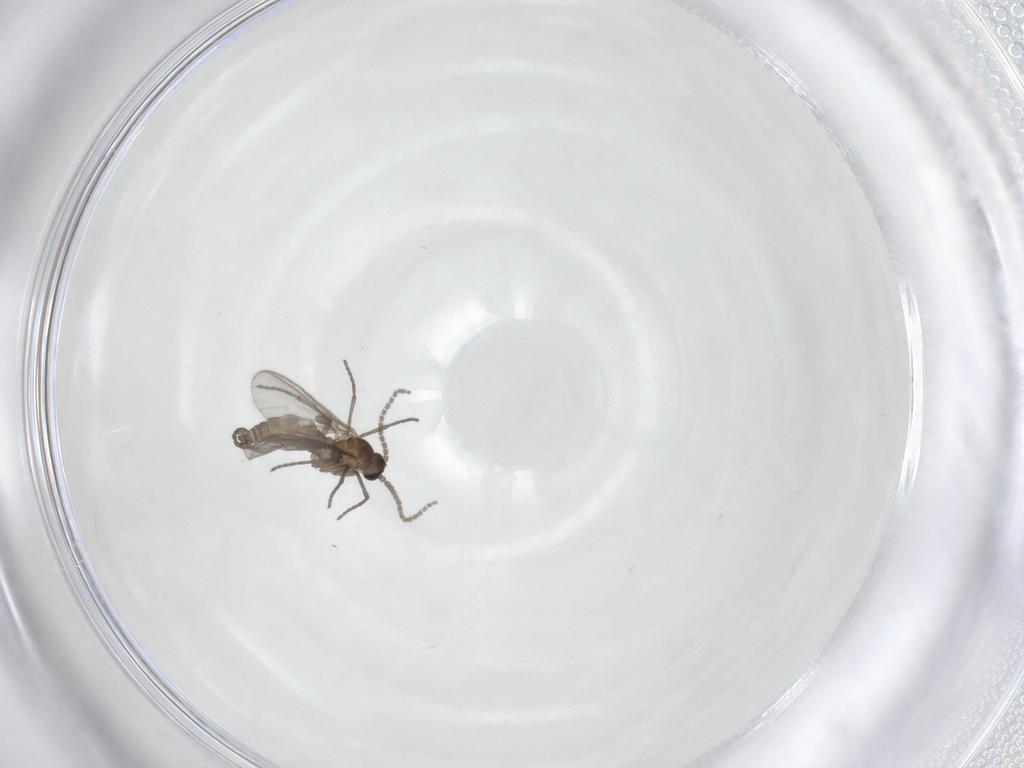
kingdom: Animalia
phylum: Arthropoda
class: Insecta
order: Diptera
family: Sciaridae
